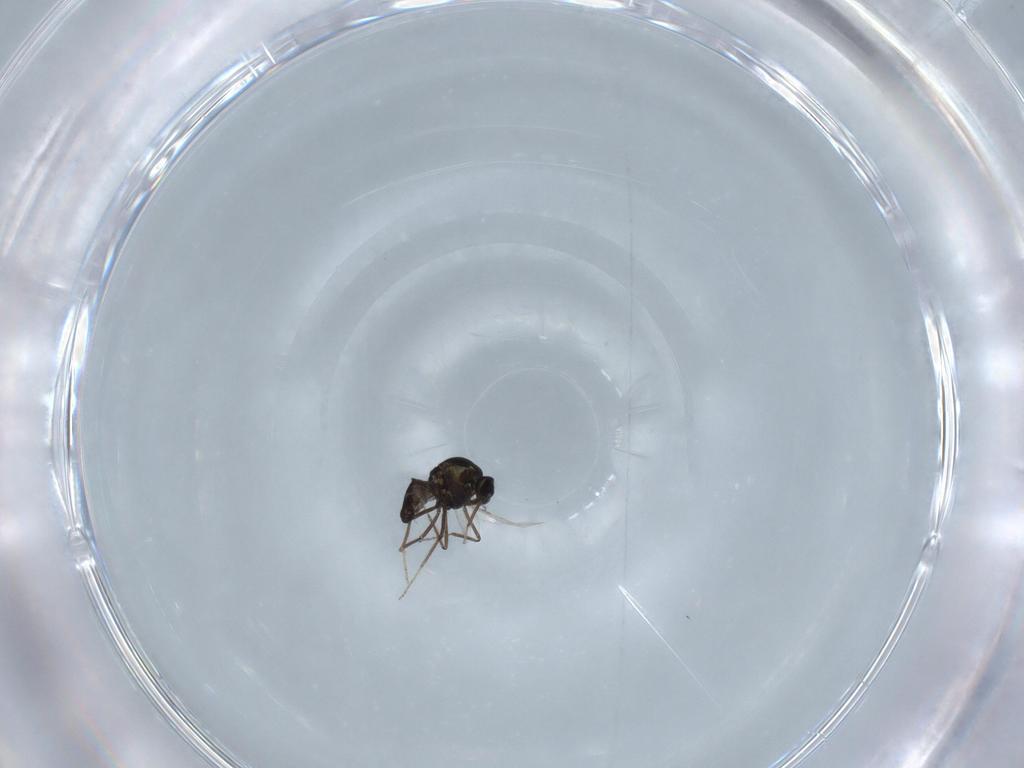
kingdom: Animalia
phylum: Arthropoda
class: Insecta
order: Diptera
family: Ceratopogonidae
